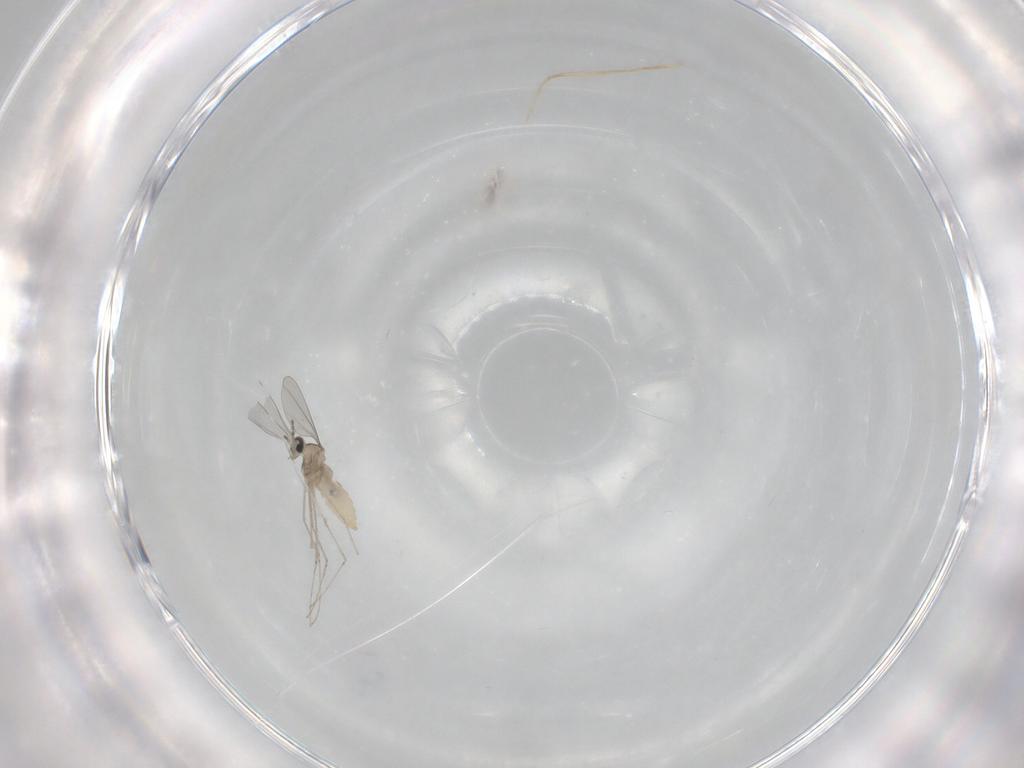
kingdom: Animalia
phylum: Arthropoda
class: Insecta
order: Diptera
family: Cecidomyiidae
